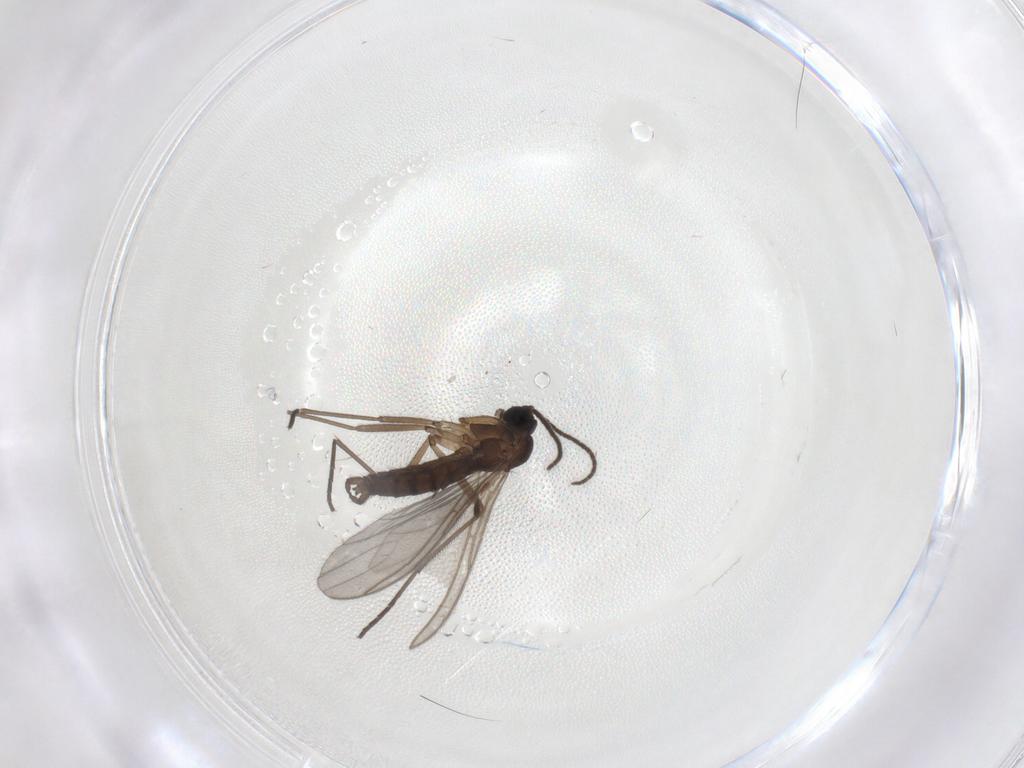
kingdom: Animalia
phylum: Arthropoda
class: Insecta
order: Diptera
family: Sciaridae
